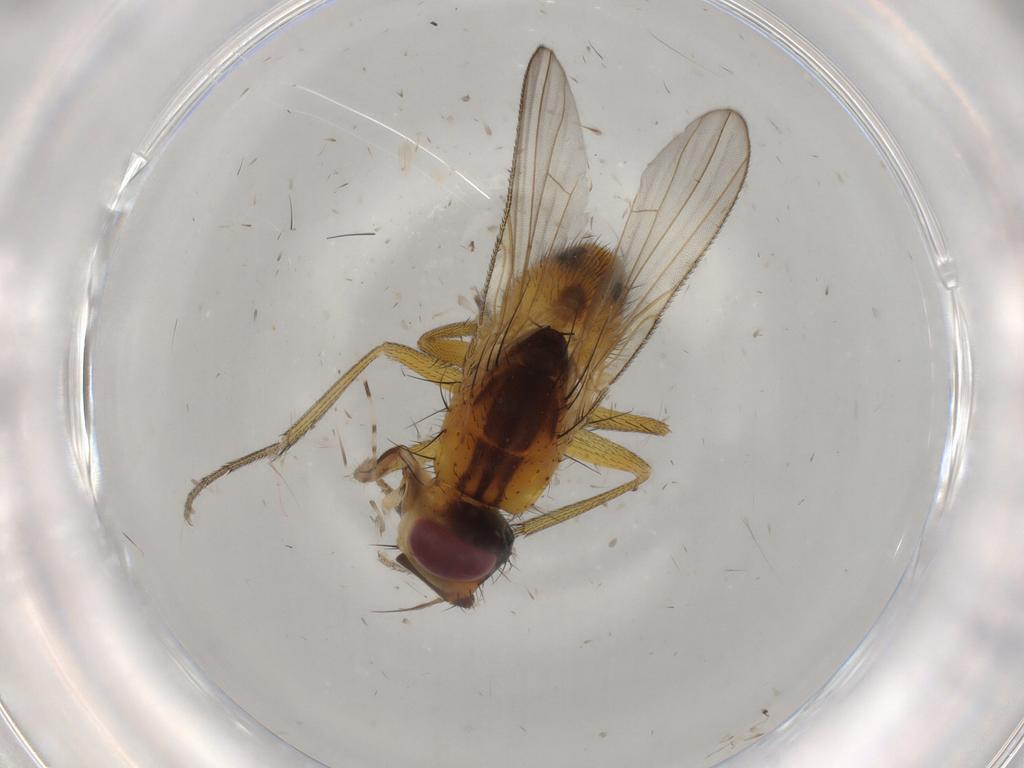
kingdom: Animalia
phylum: Arthropoda
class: Insecta
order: Diptera
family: Muscidae
